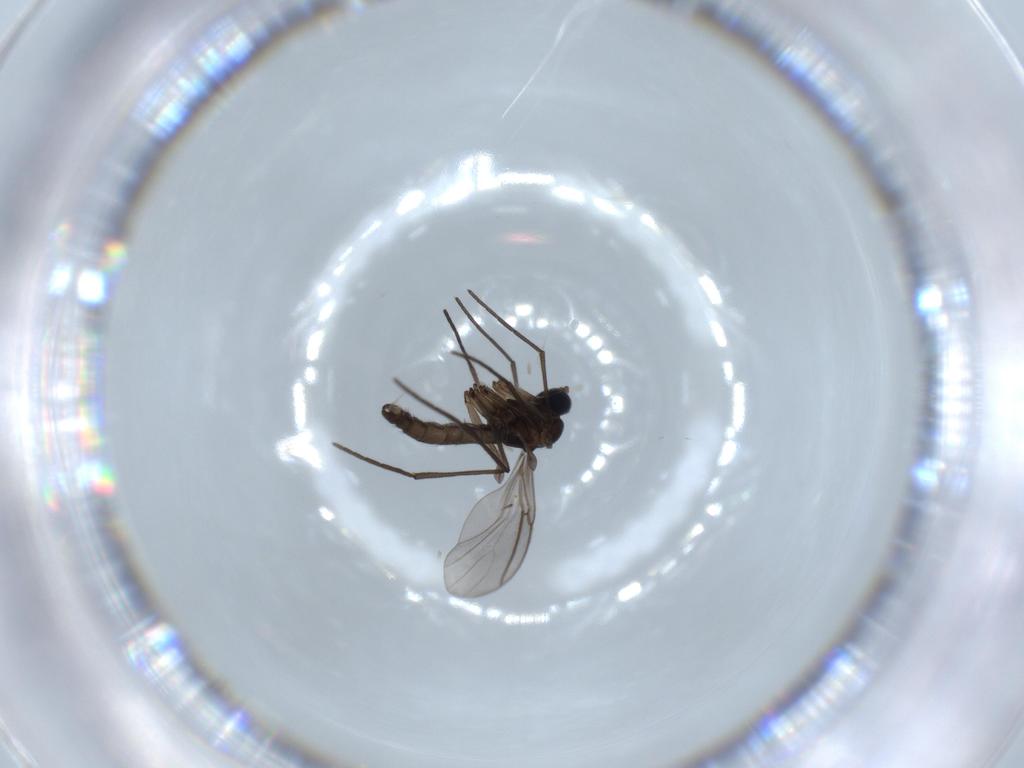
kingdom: Animalia
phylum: Arthropoda
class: Insecta
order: Diptera
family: Sciaridae
